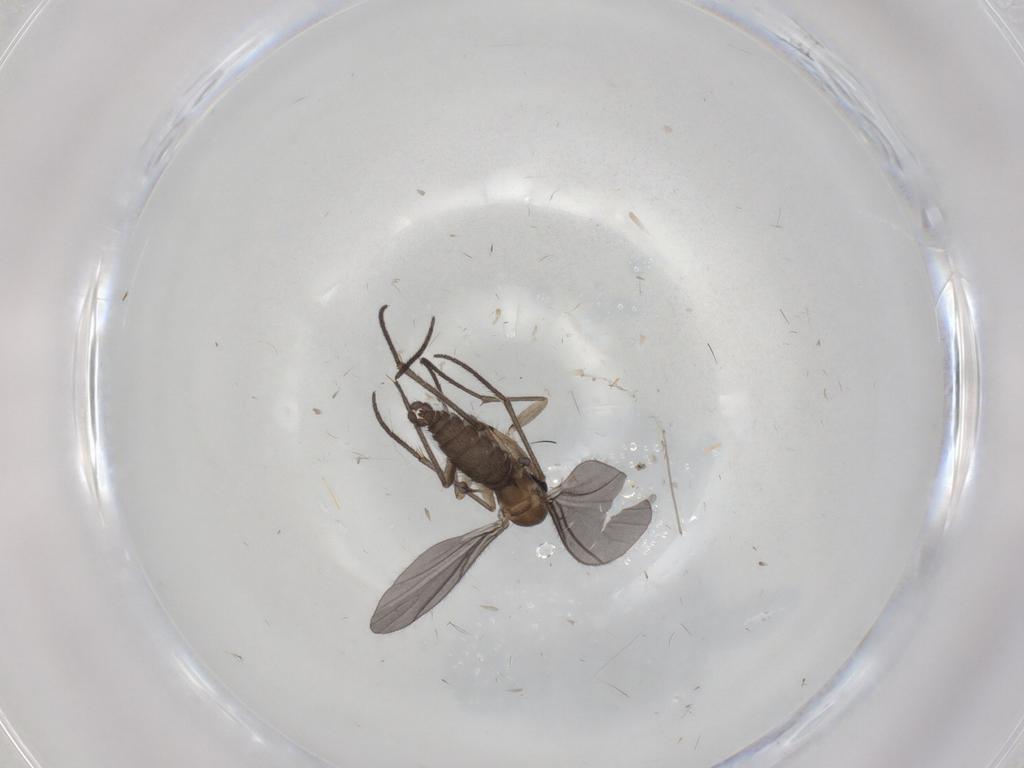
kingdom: Animalia
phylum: Arthropoda
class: Insecta
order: Diptera
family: Sciaridae
